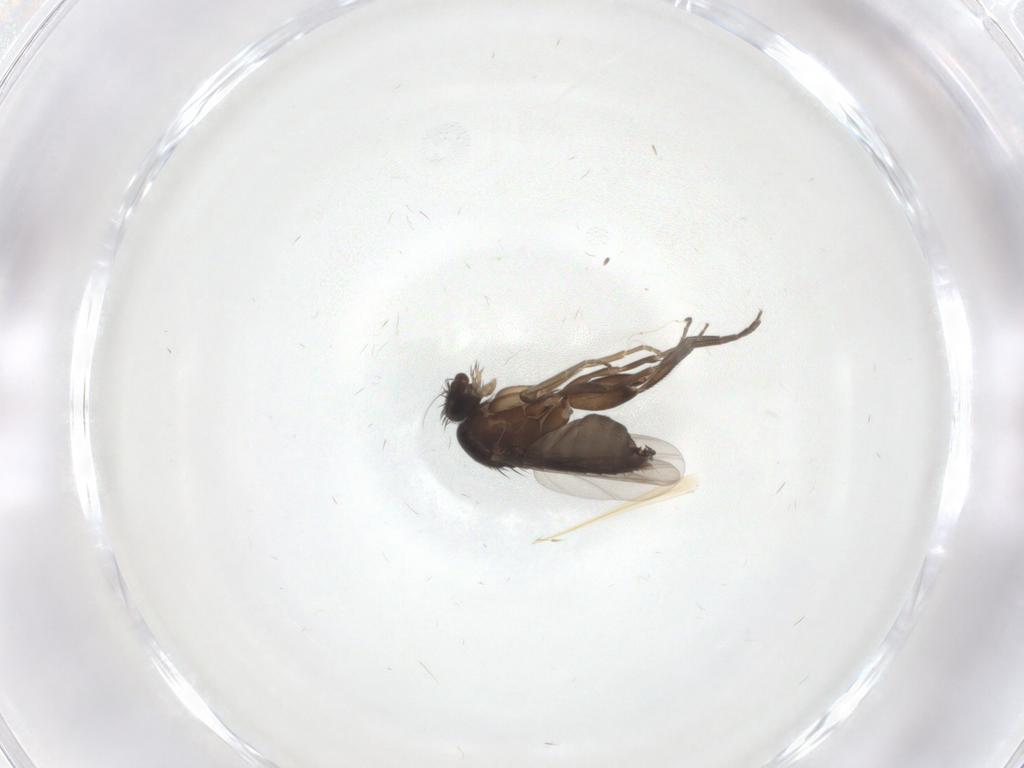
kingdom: Animalia
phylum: Arthropoda
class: Insecta
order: Diptera
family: Phoridae
